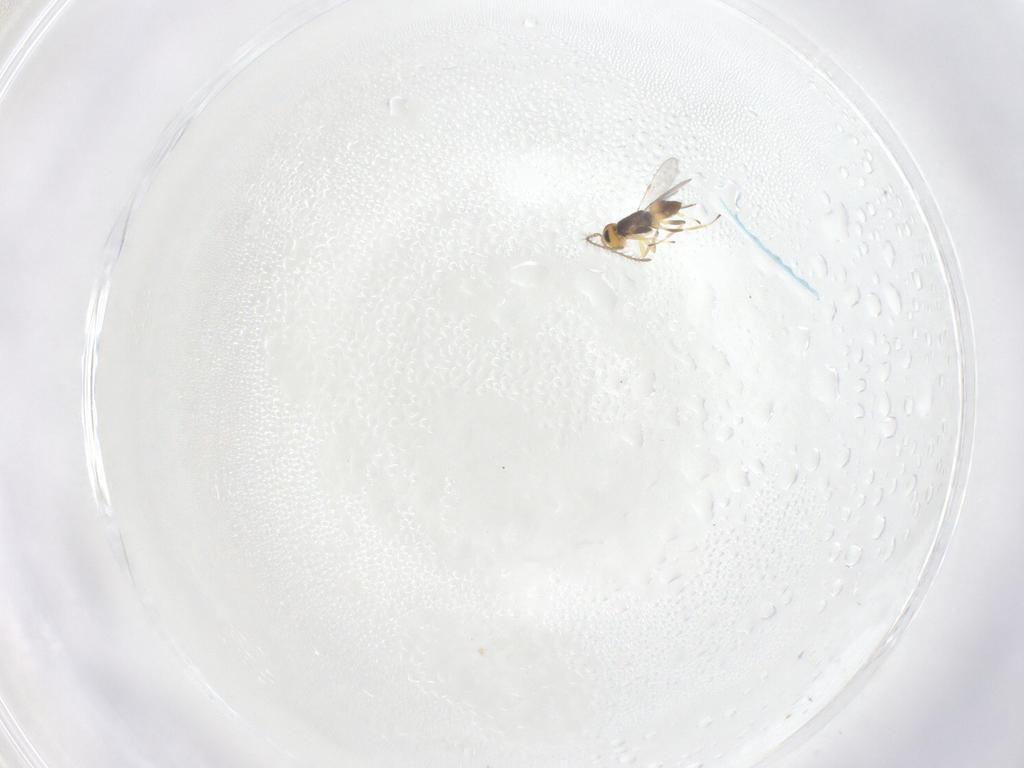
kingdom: Animalia
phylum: Arthropoda
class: Insecta
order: Hymenoptera
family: Encyrtidae
